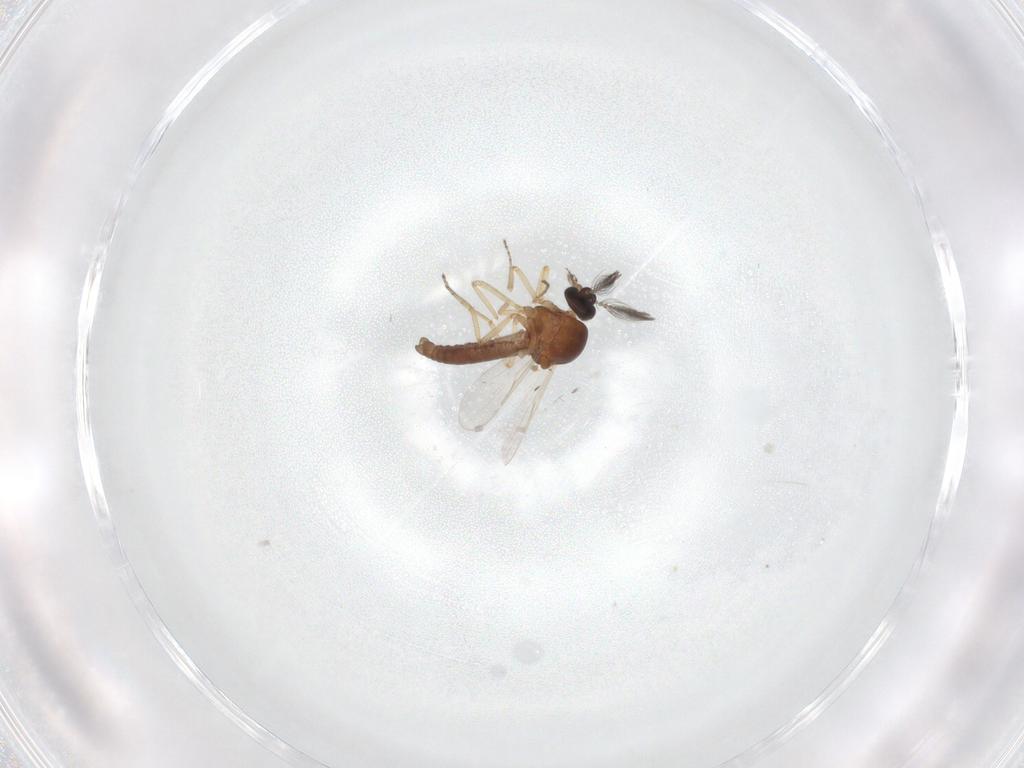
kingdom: Animalia
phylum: Arthropoda
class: Insecta
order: Diptera
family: Ceratopogonidae
